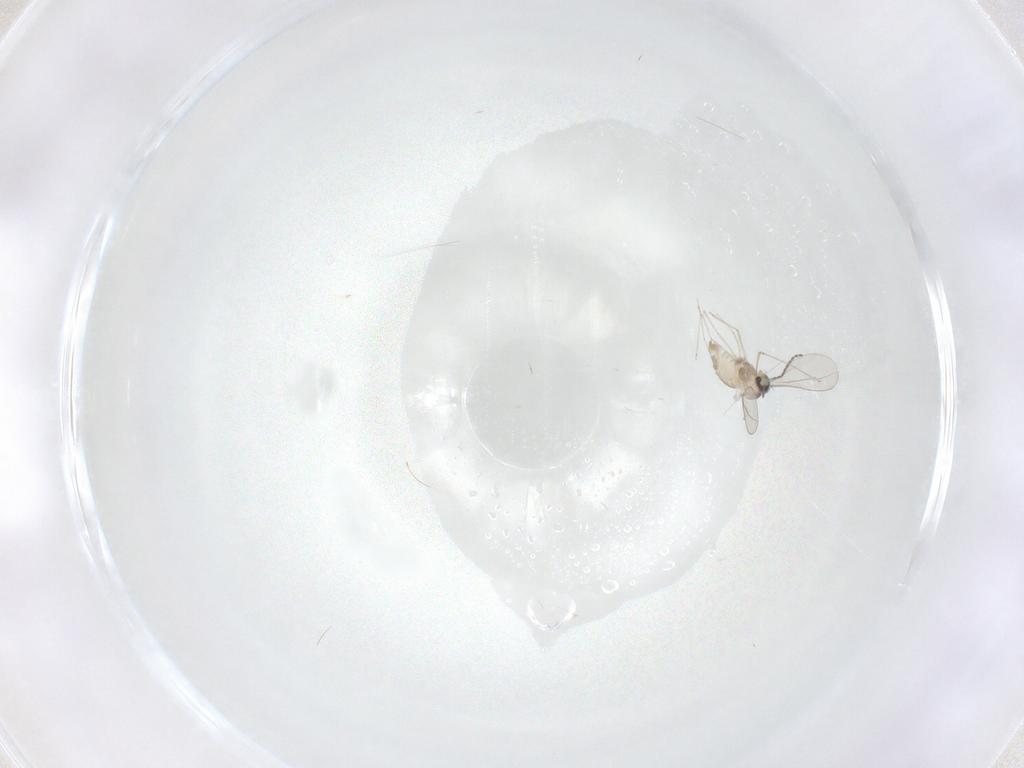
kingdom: Animalia
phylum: Arthropoda
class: Insecta
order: Diptera
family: Cecidomyiidae
